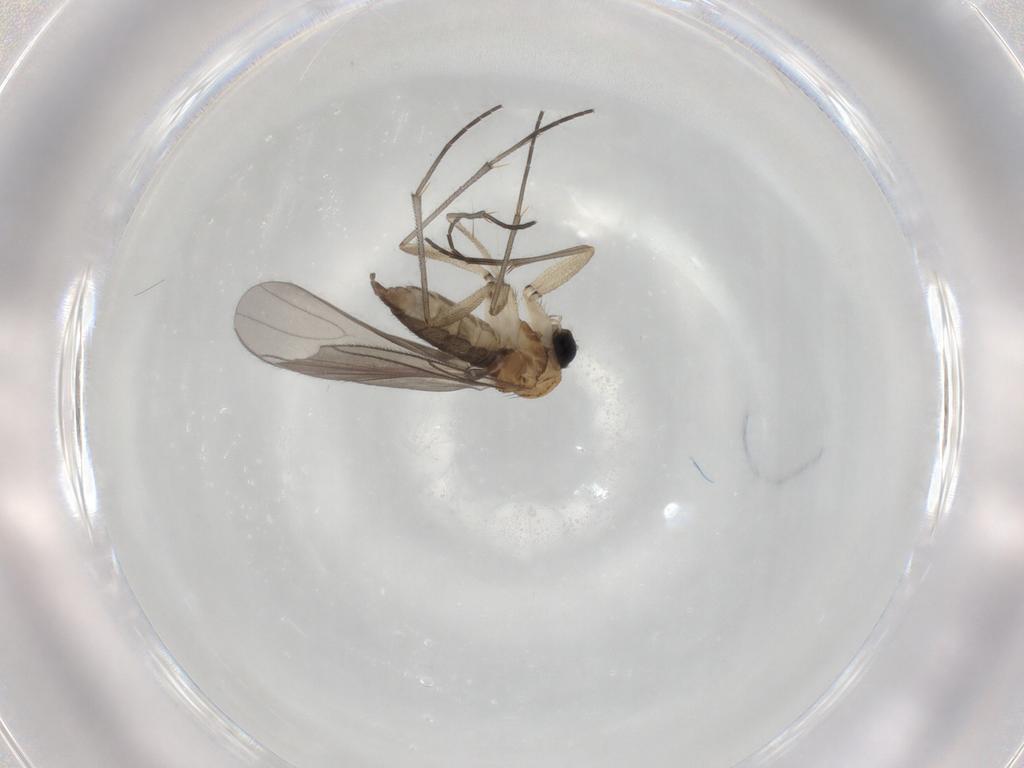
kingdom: Animalia
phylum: Arthropoda
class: Insecta
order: Diptera
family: Sciaridae
